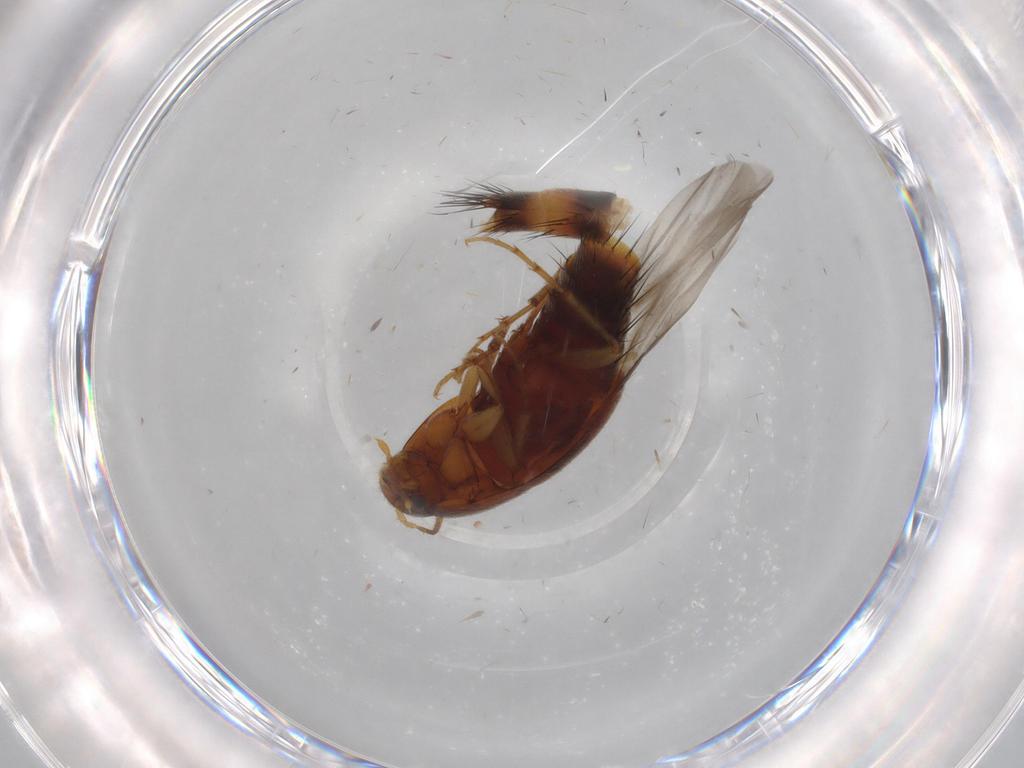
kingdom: Animalia
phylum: Arthropoda
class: Insecta
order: Coleoptera
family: Staphylinidae
